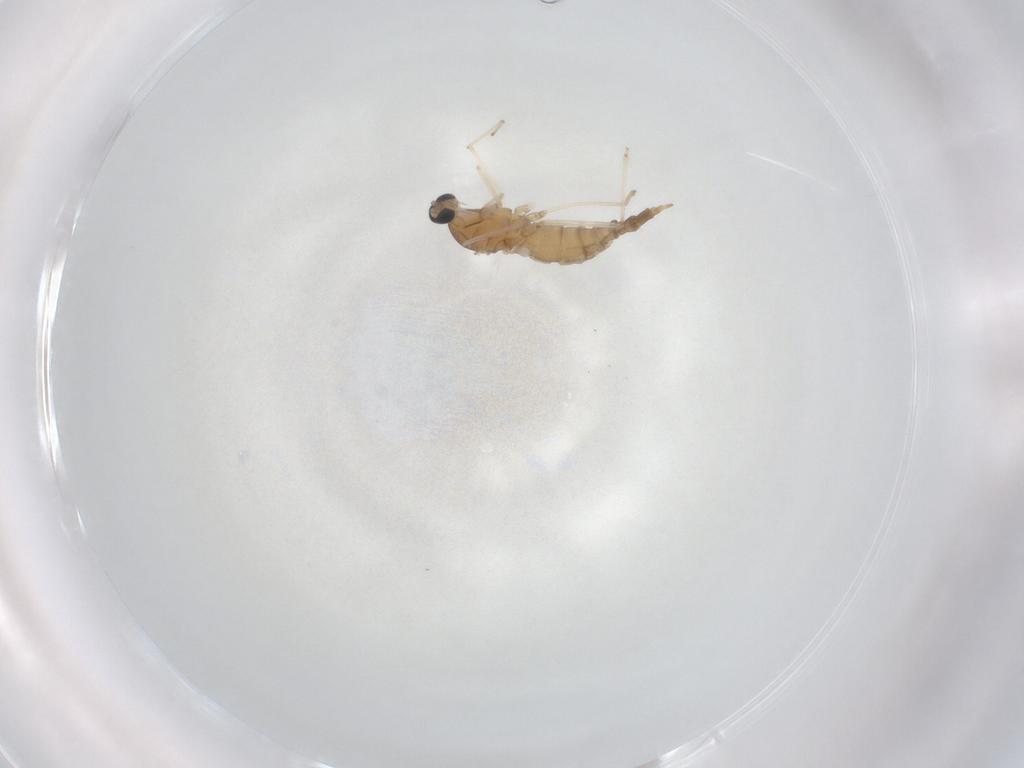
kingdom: Animalia
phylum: Arthropoda
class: Insecta
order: Diptera
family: Cecidomyiidae
